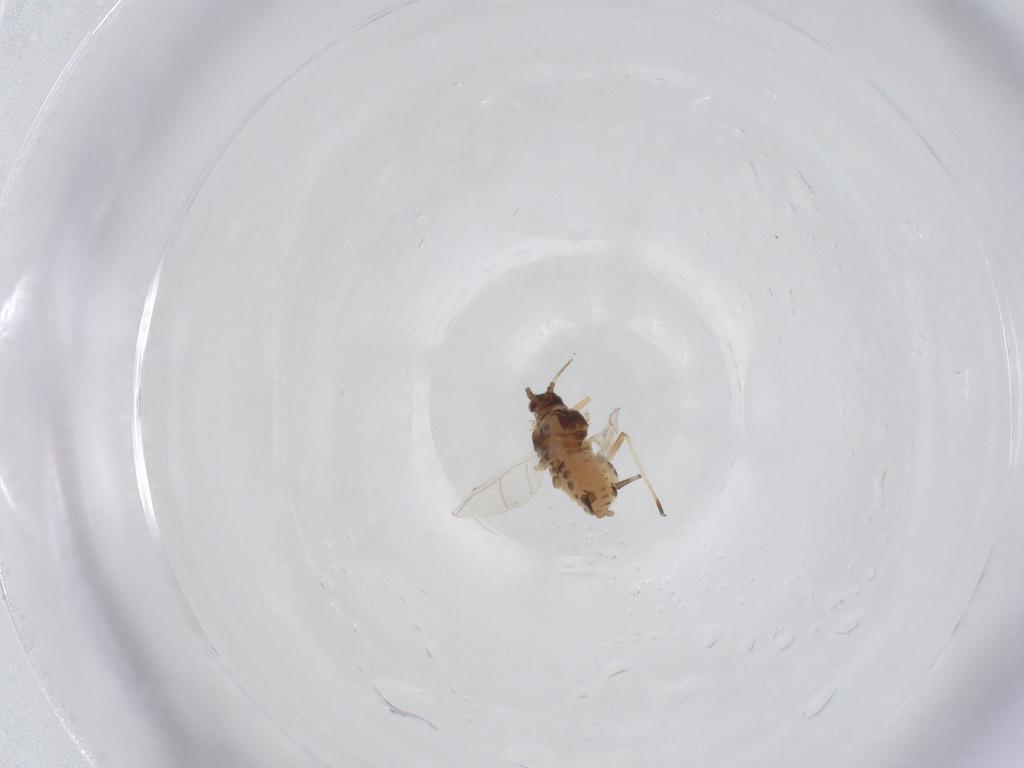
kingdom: Animalia
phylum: Arthropoda
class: Insecta
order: Hemiptera
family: Aphididae
